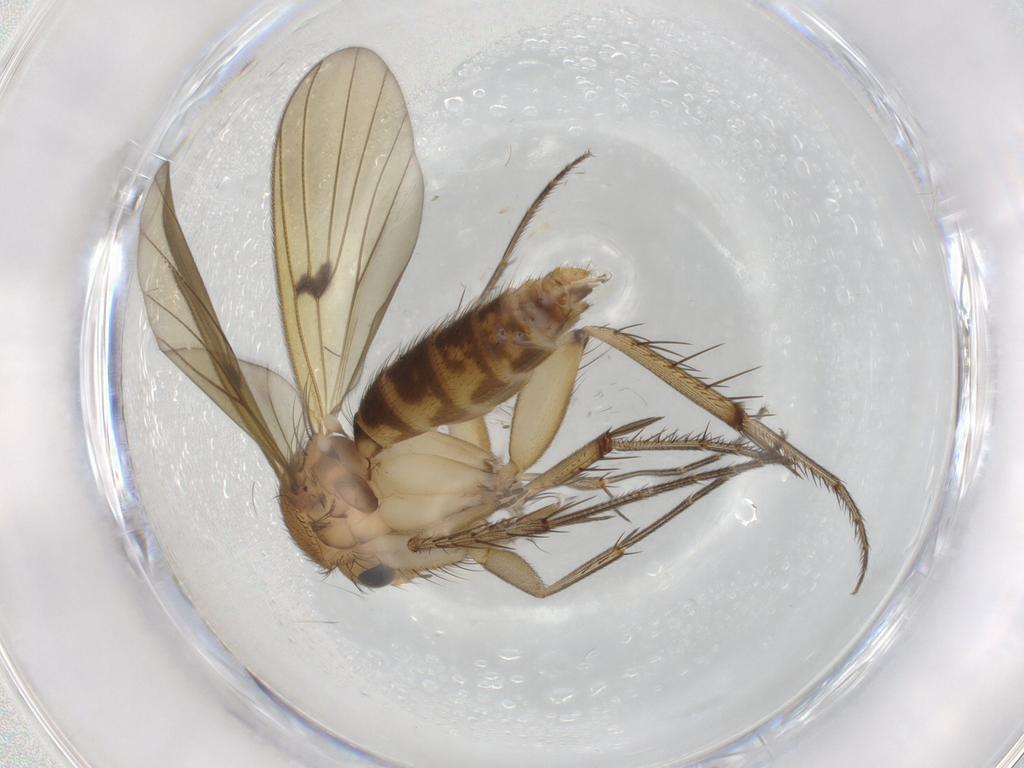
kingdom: Animalia
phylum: Arthropoda
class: Insecta
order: Diptera
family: Mycetophilidae
